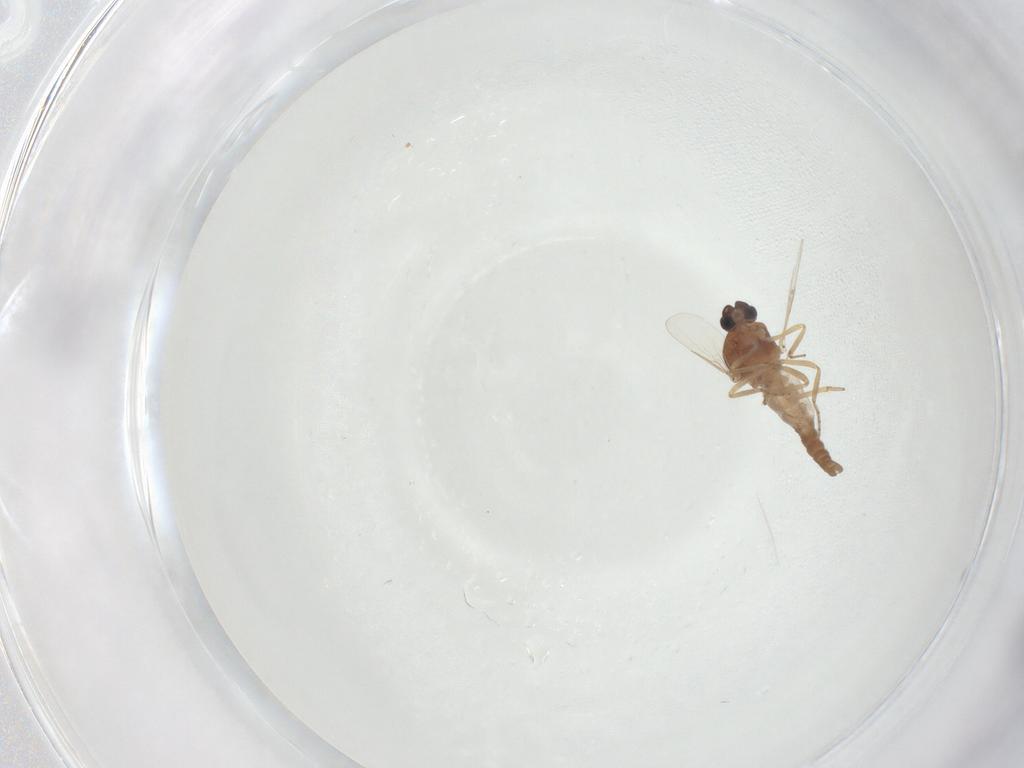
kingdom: Animalia
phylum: Arthropoda
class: Insecta
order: Diptera
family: Ceratopogonidae
